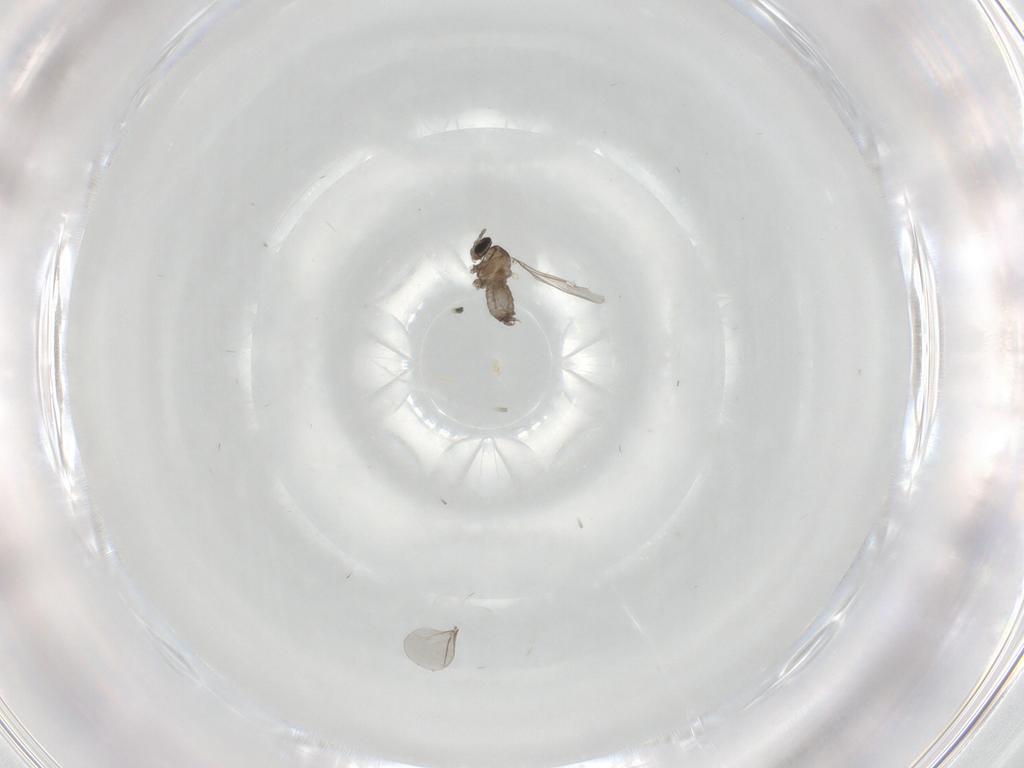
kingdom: Animalia
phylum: Arthropoda
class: Insecta
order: Diptera
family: Cecidomyiidae
